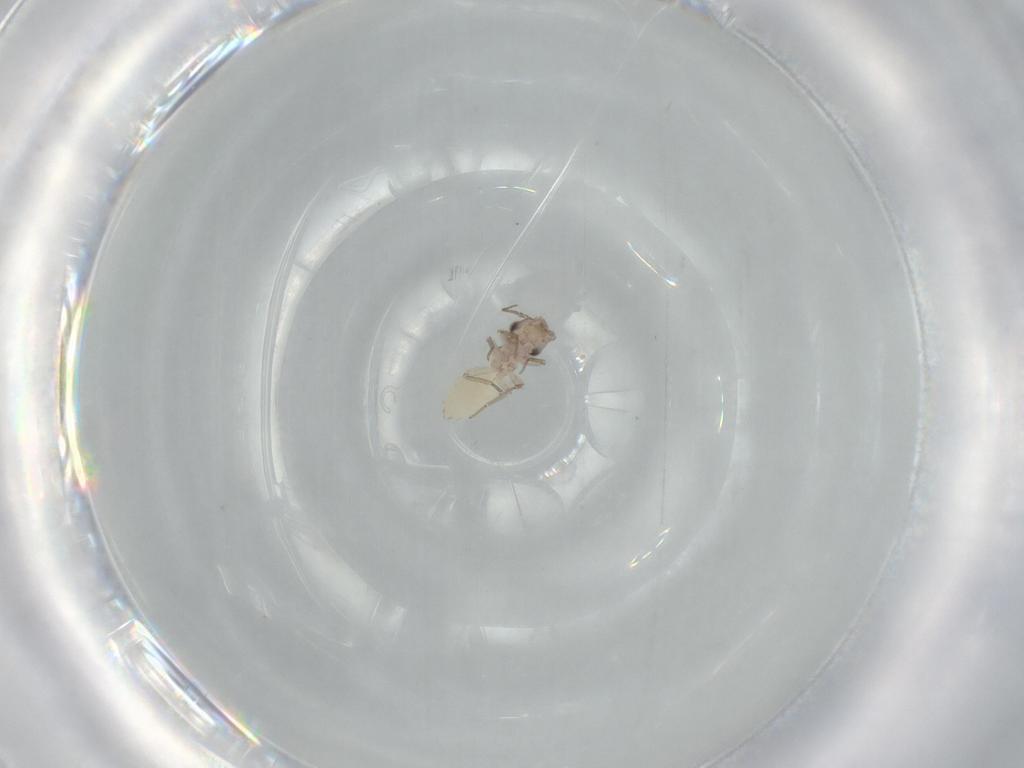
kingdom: Animalia
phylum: Arthropoda
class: Insecta
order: Psocodea
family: Lepidopsocidae
